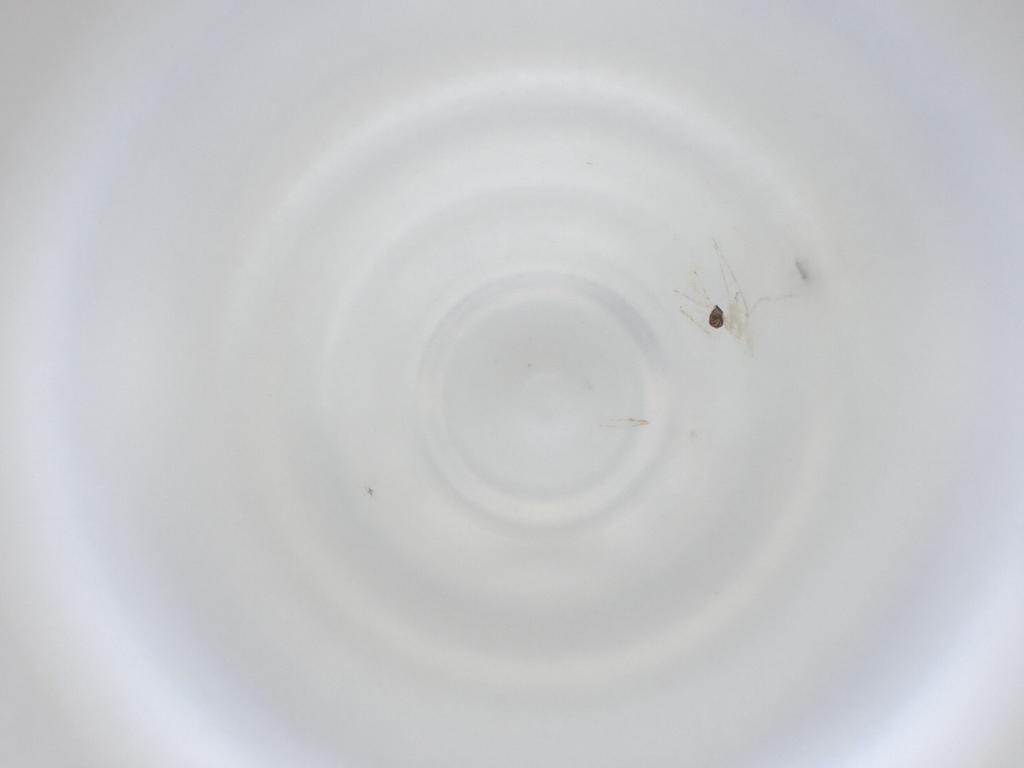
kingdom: Animalia
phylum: Arthropoda
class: Insecta
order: Diptera
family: Cecidomyiidae
